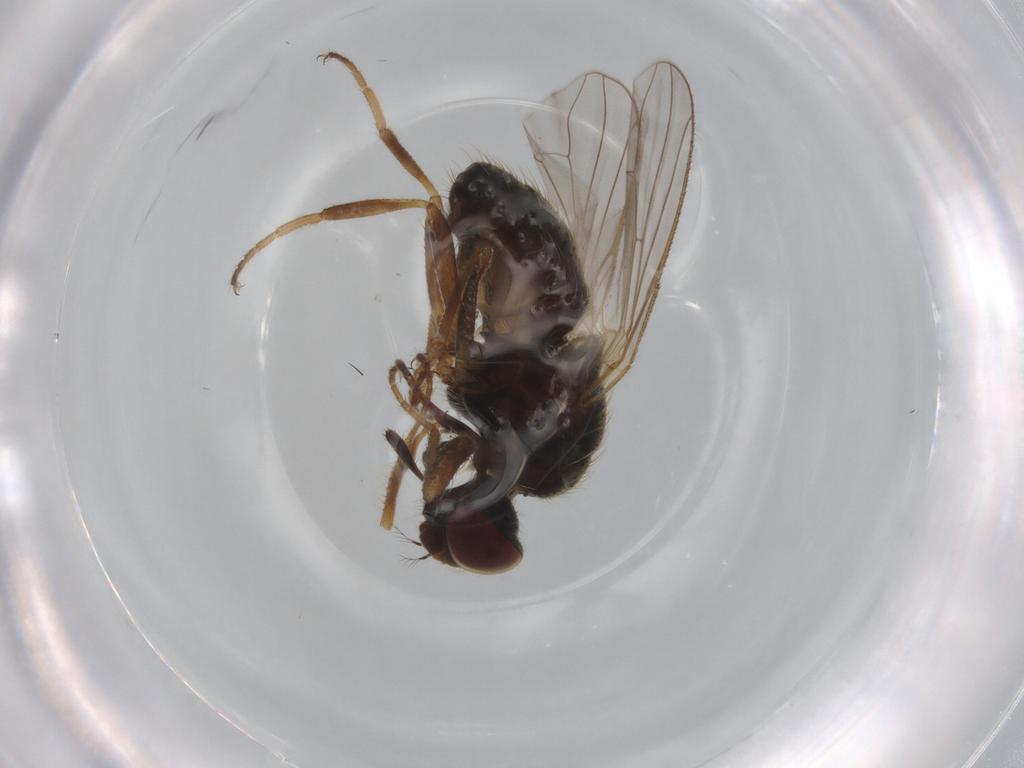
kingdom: Animalia
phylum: Arthropoda
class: Insecta
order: Diptera
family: Muscidae
